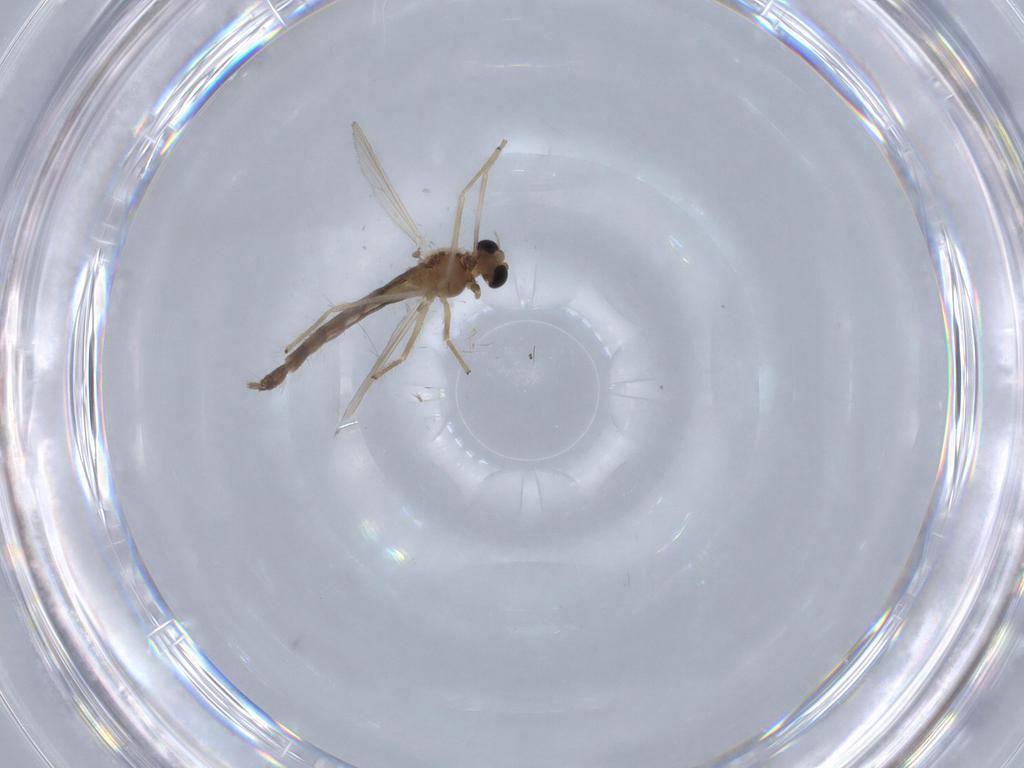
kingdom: Animalia
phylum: Arthropoda
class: Insecta
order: Diptera
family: Chironomidae
